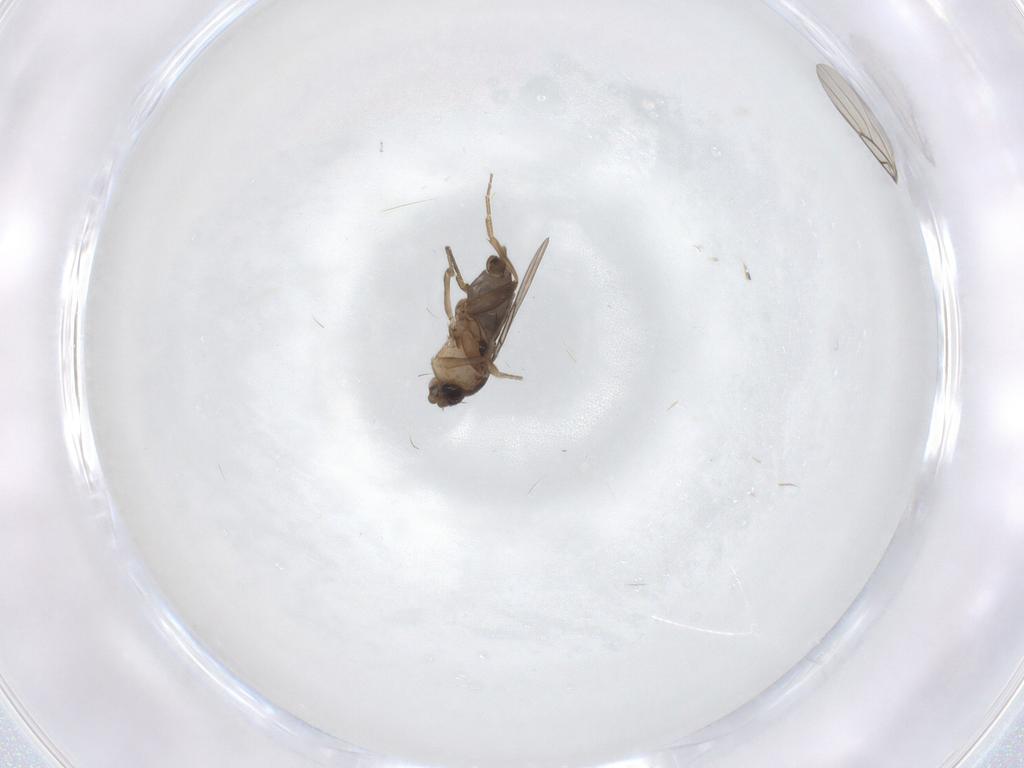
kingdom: Animalia
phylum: Arthropoda
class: Insecta
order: Diptera
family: Phoridae
